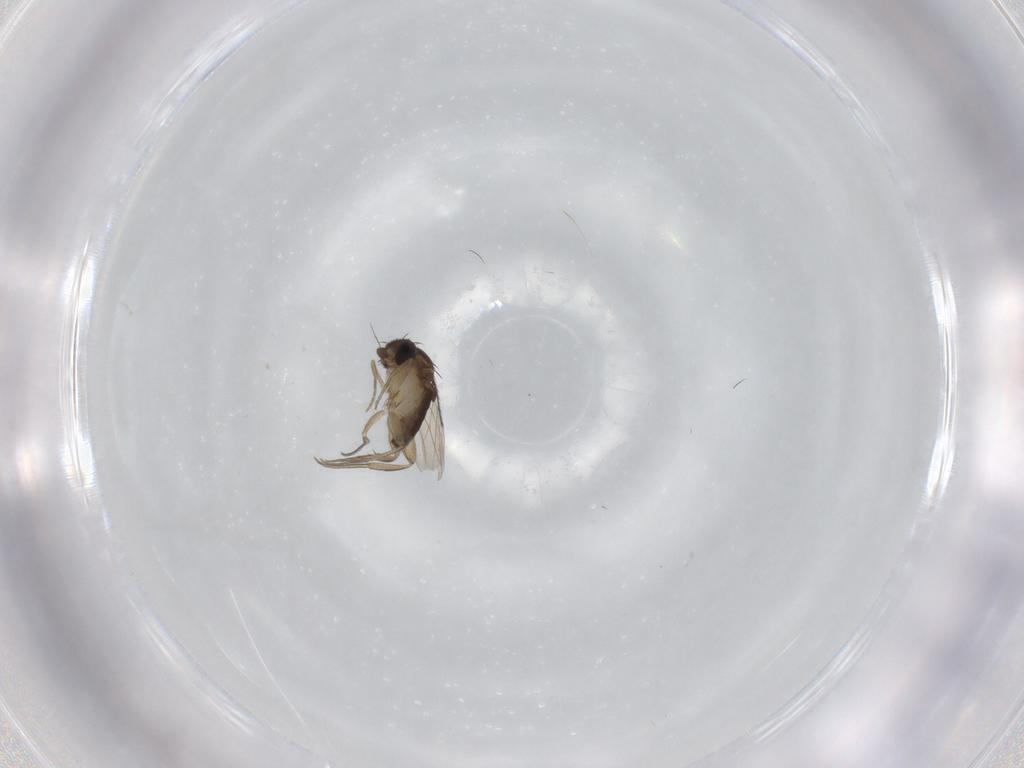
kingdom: Animalia
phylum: Arthropoda
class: Insecta
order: Diptera
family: Phoridae
